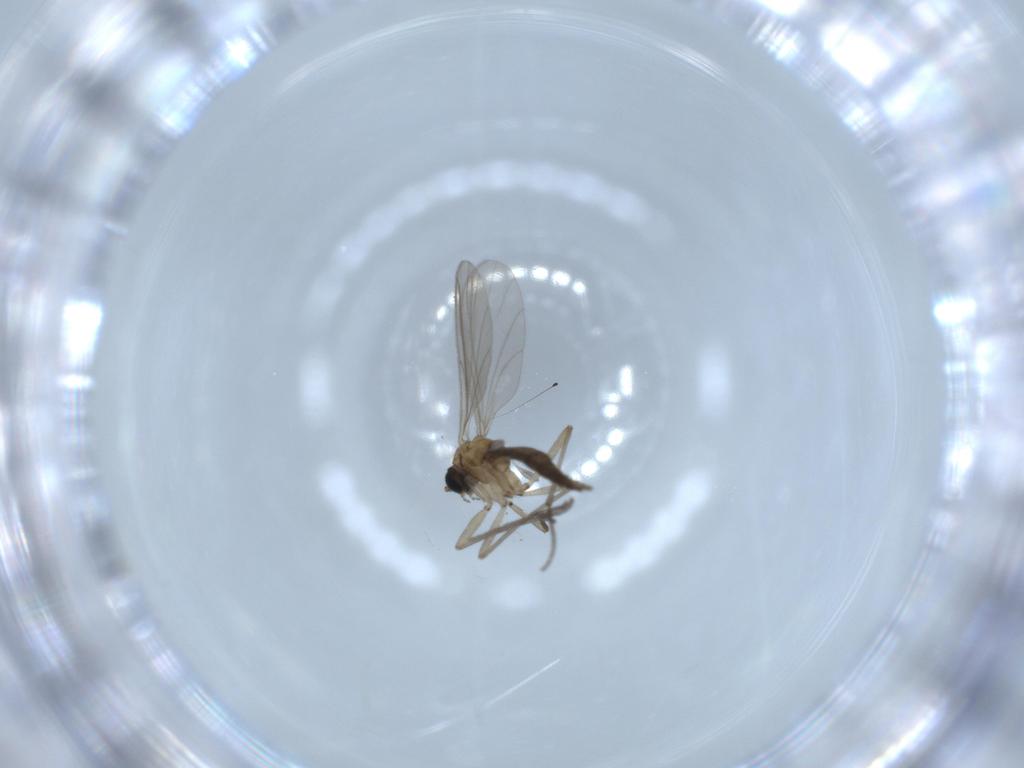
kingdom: Animalia
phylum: Arthropoda
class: Insecta
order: Diptera
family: Sciaridae
